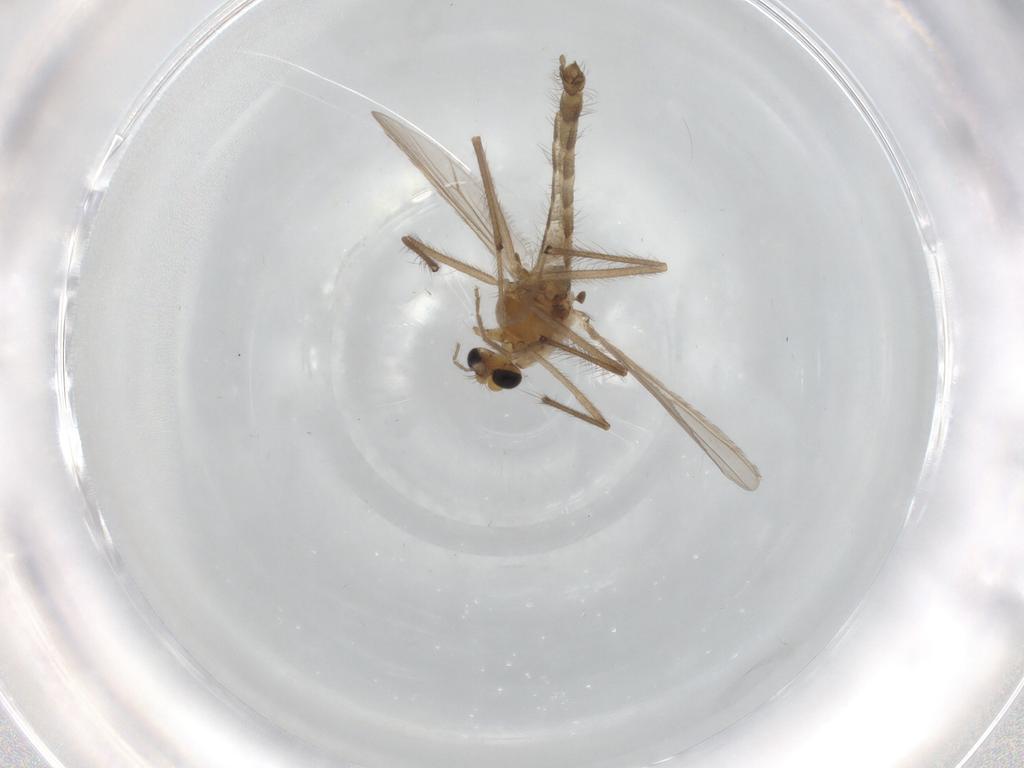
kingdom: Animalia
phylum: Arthropoda
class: Insecta
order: Diptera
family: Chironomidae
